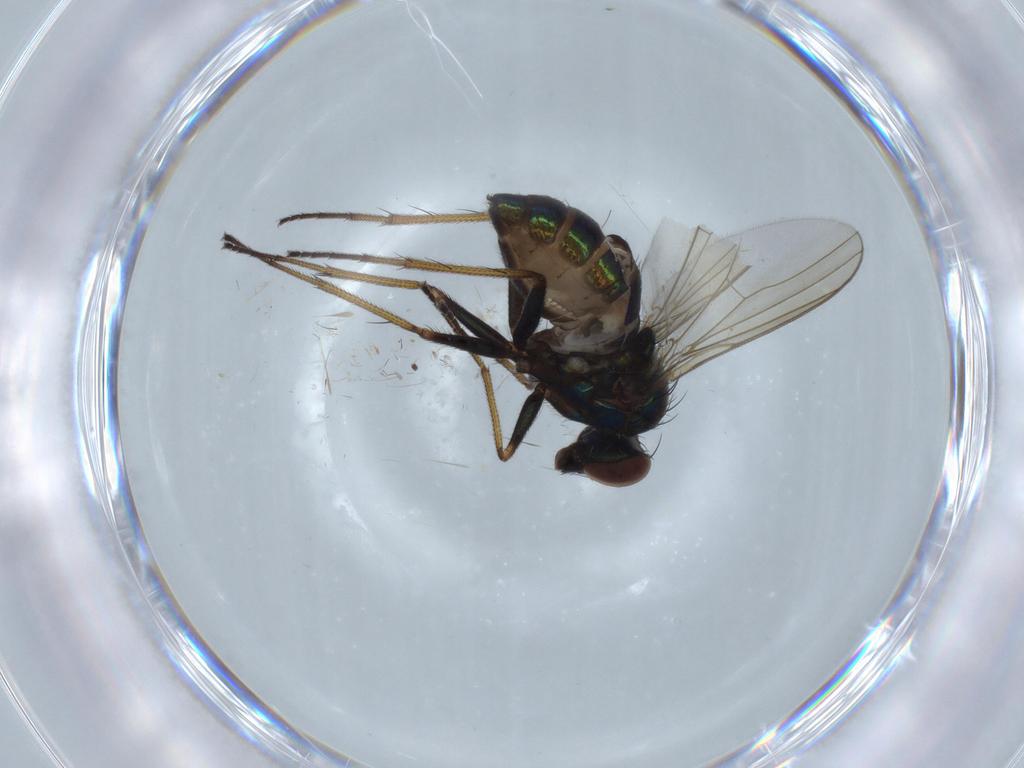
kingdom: Animalia
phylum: Arthropoda
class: Insecta
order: Diptera
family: Dolichopodidae
